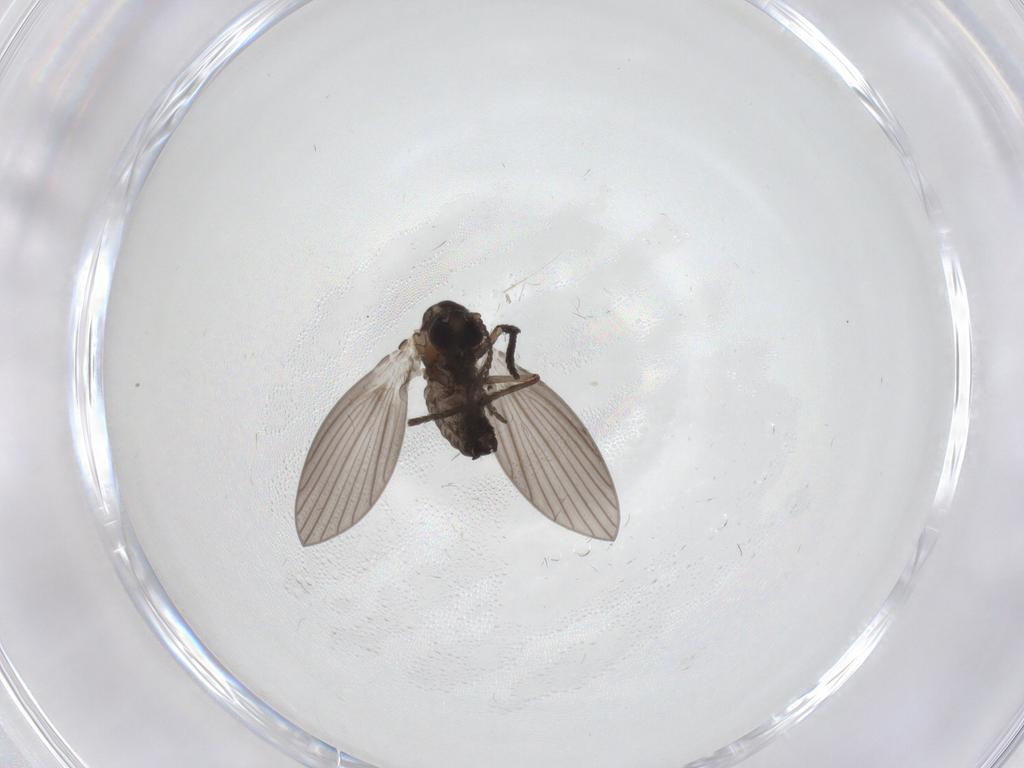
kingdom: Animalia
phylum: Arthropoda
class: Insecta
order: Diptera
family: Psychodidae
